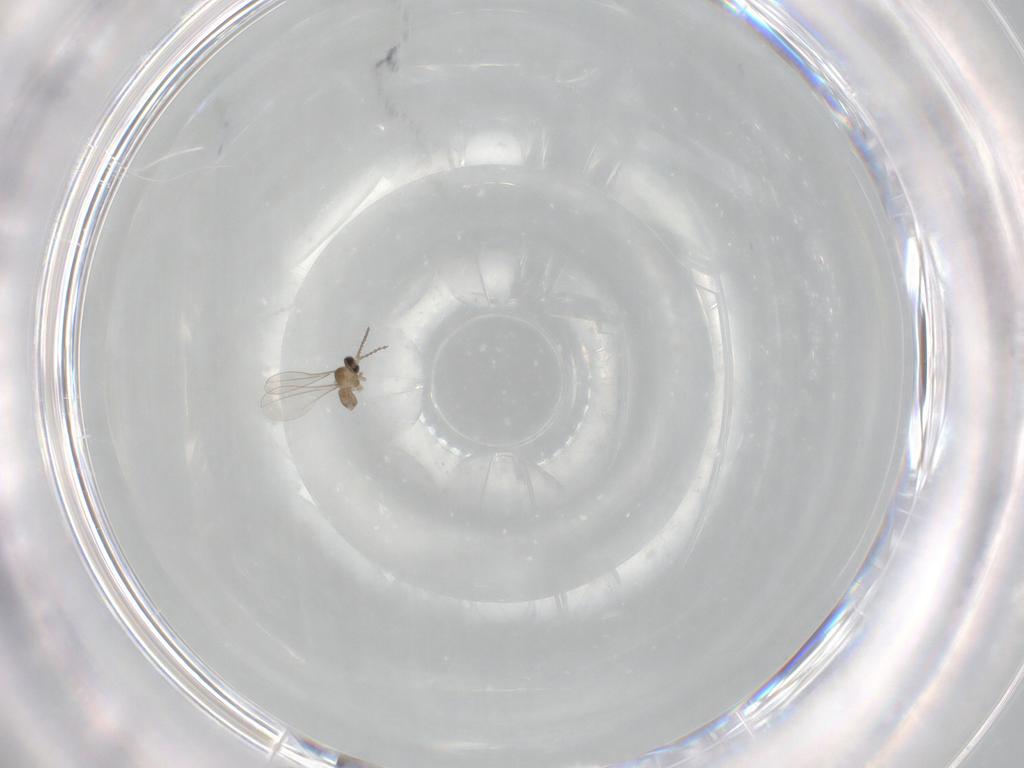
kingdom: Animalia
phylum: Arthropoda
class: Insecta
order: Diptera
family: Cecidomyiidae
